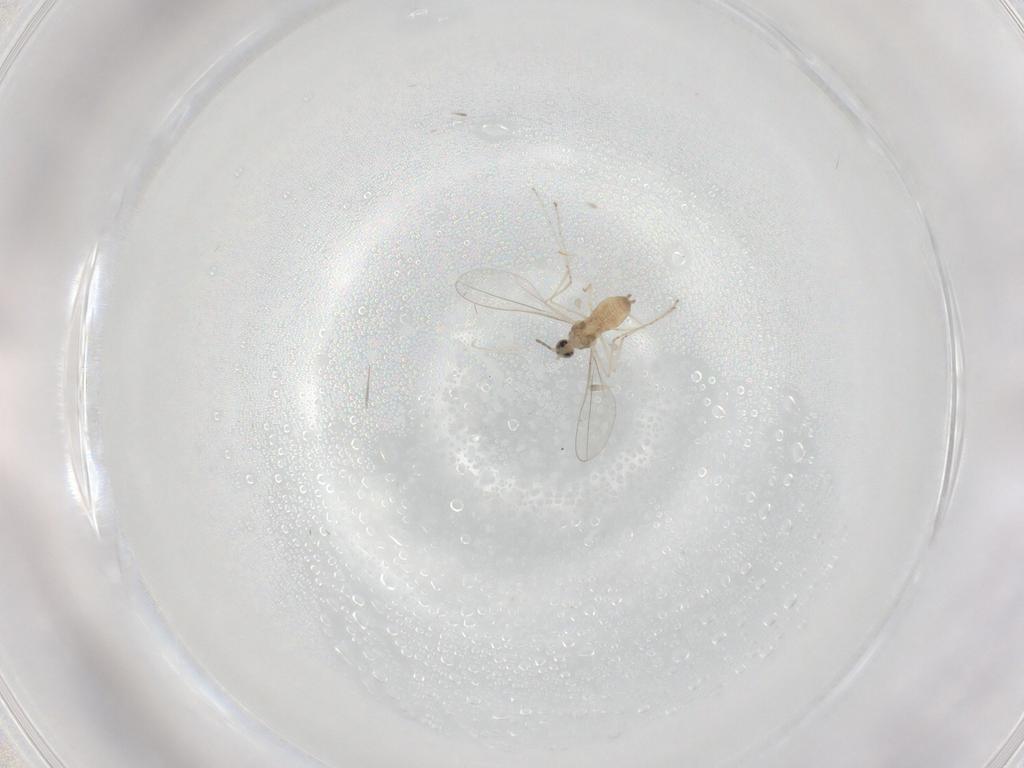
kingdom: Animalia
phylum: Arthropoda
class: Insecta
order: Diptera
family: Cecidomyiidae
